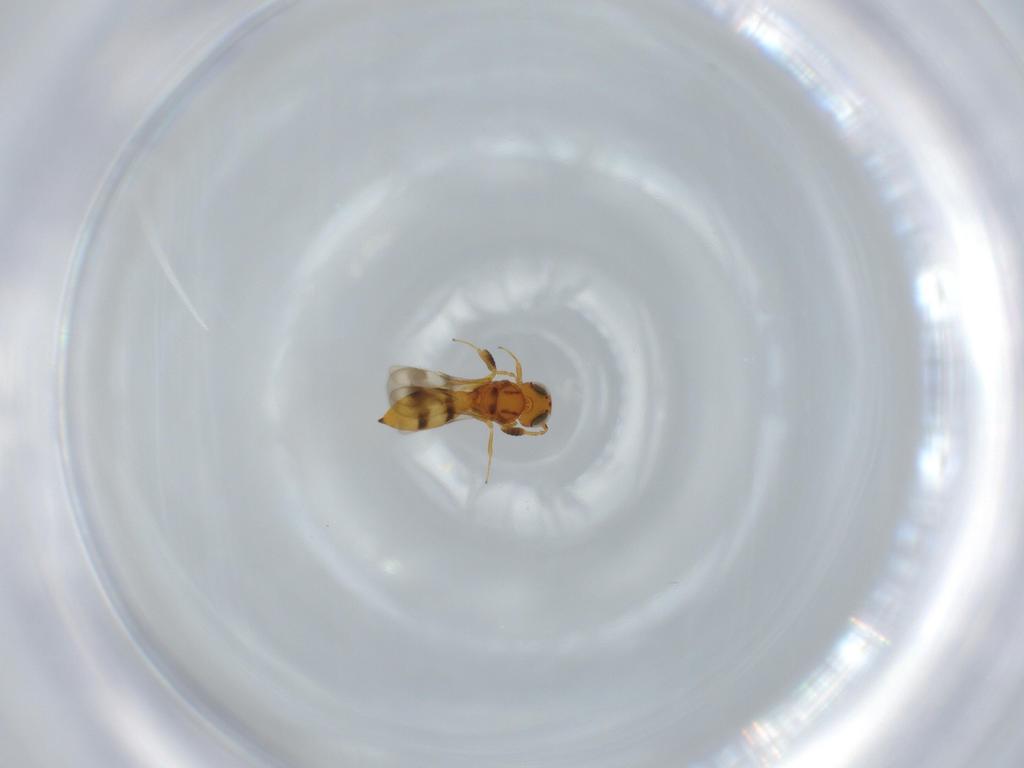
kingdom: Animalia
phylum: Arthropoda
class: Insecta
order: Hymenoptera
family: Scelionidae
